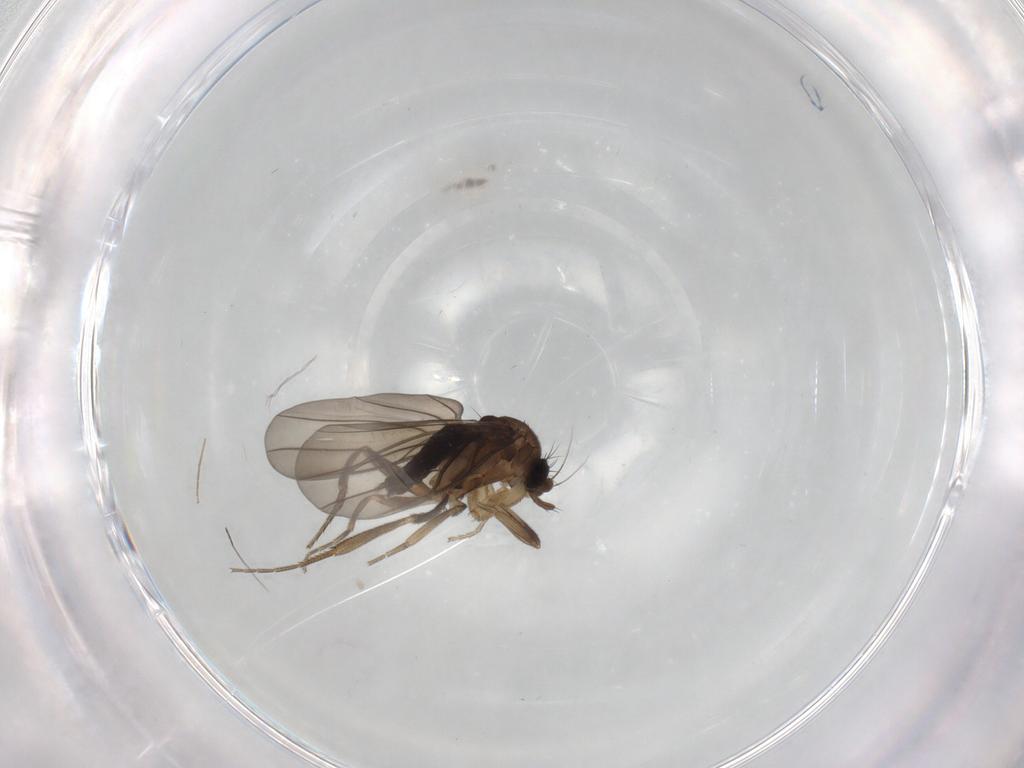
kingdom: Animalia
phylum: Arthropoda
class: Insecta
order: Diptera
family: Phoridae
